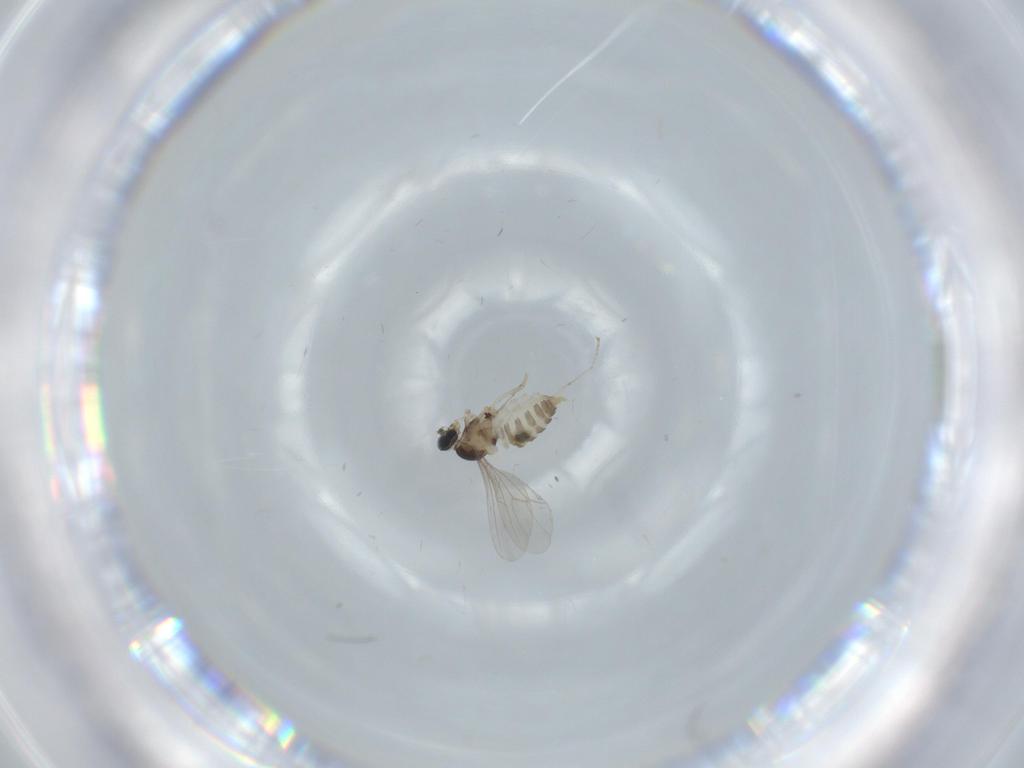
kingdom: Animalia
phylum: Arthropoda
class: Insecta
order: Diptera
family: Cecidomyiidae
